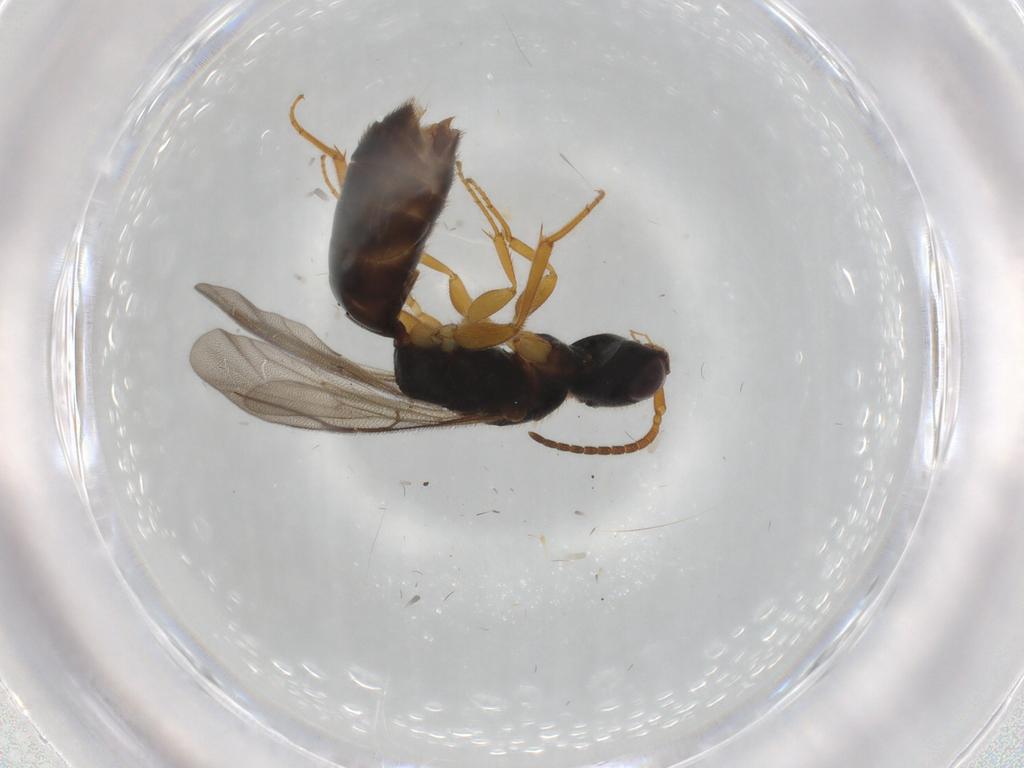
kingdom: Animalia
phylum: Arthropoda
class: Insecta
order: Hymenoptera
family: Bethylidae
